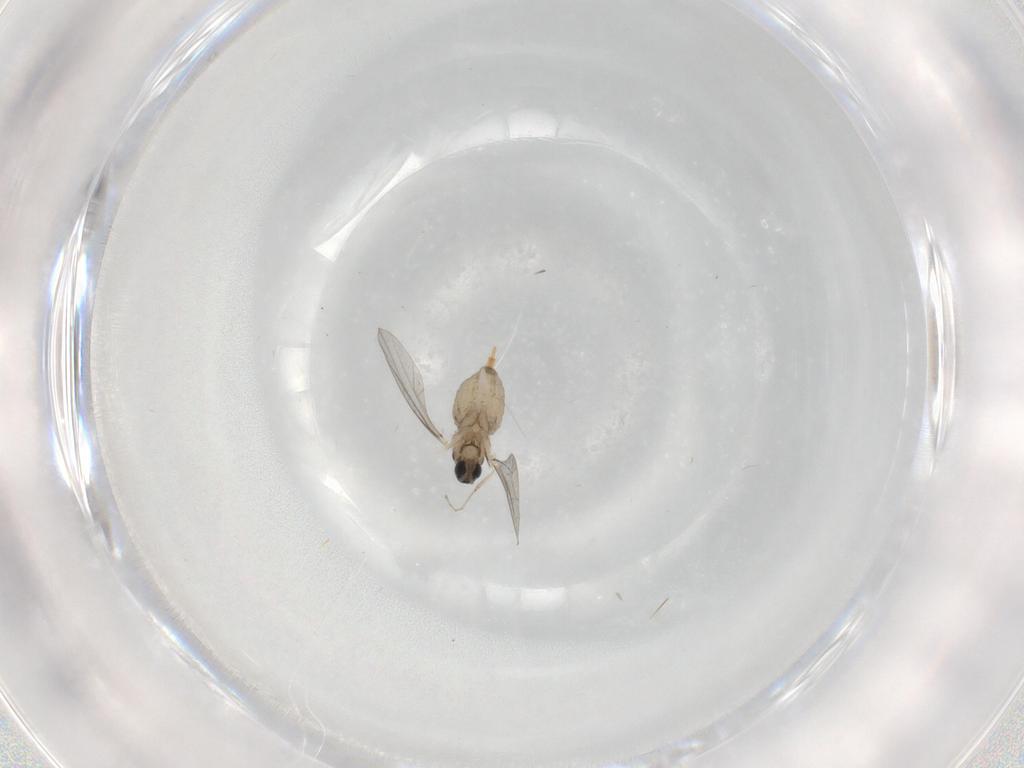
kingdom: Animalia
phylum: Arthropoda
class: Insecta
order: Diptera
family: Cecidomyiidae
